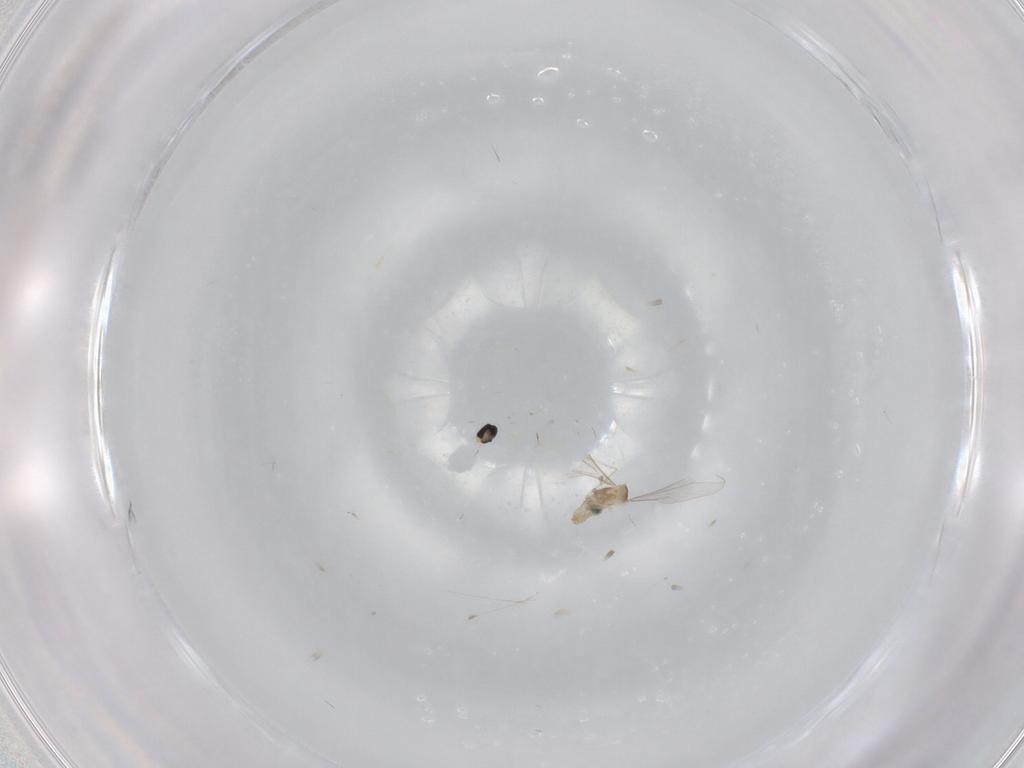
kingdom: Animalia
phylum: Arthropoda
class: Insecta
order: Diptera
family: Cecidomyiidae
